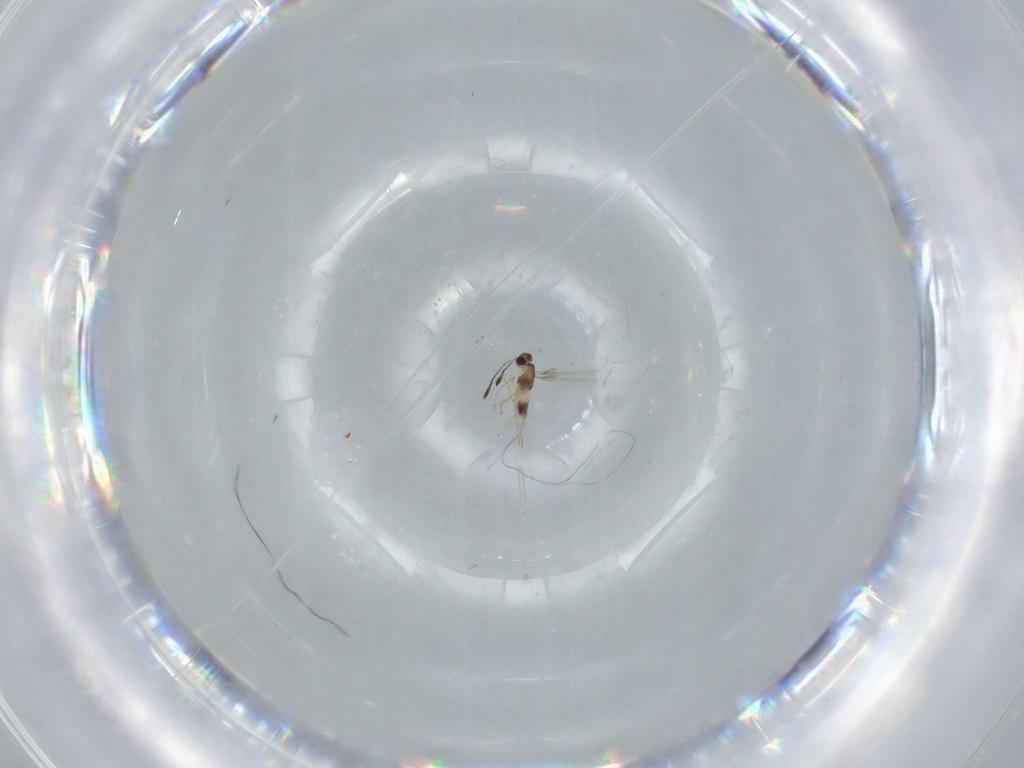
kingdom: Animalia
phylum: Arthropoda
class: Insecta
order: Hymenoptera
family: Mymaridae
